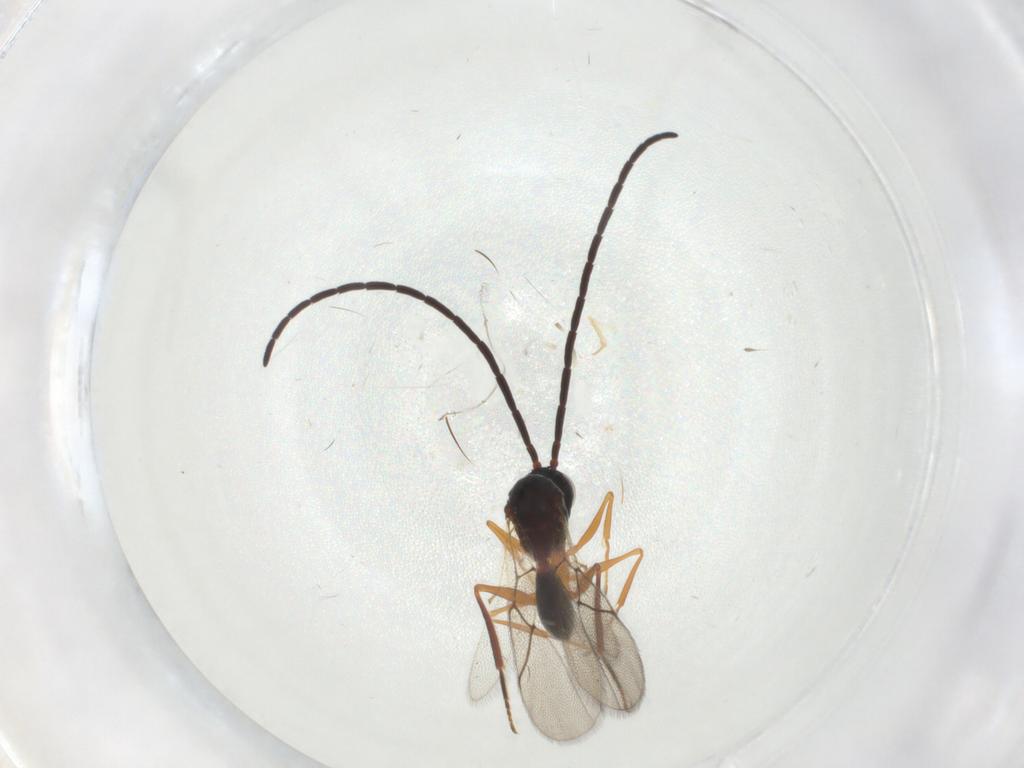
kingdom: Animalia
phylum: Arthropoda
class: Insecta
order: Hymenoptera
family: Figitidae
